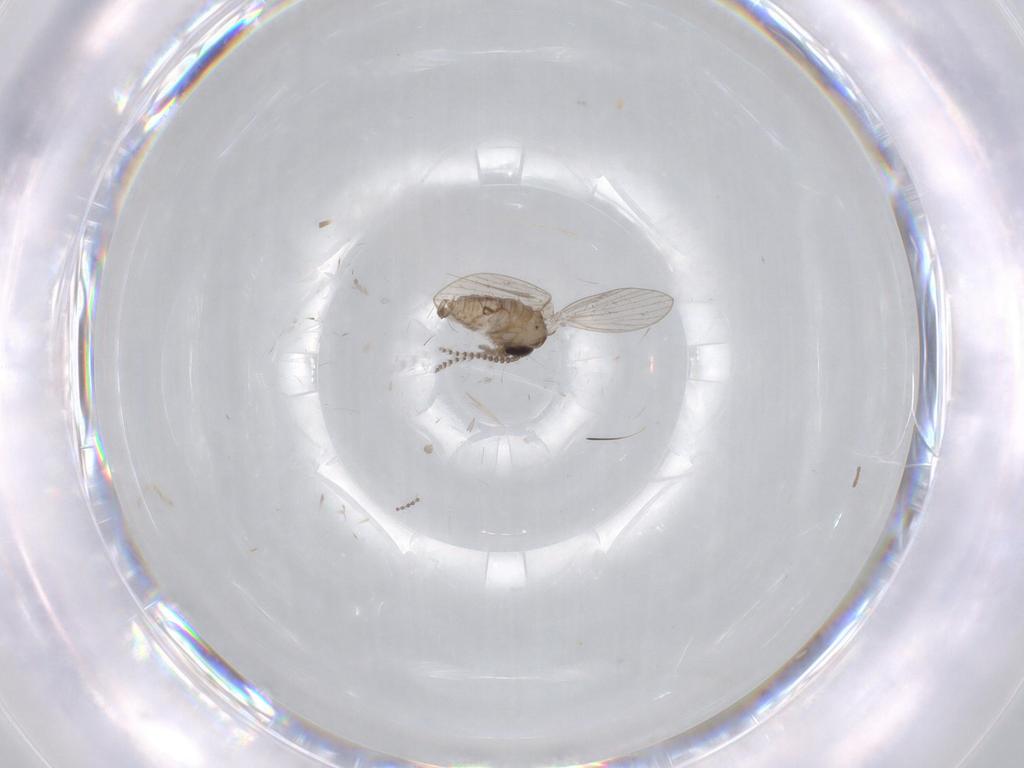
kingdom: Animalia
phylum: Arthropoda
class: Insecta
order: Diptera
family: Psychodidae
